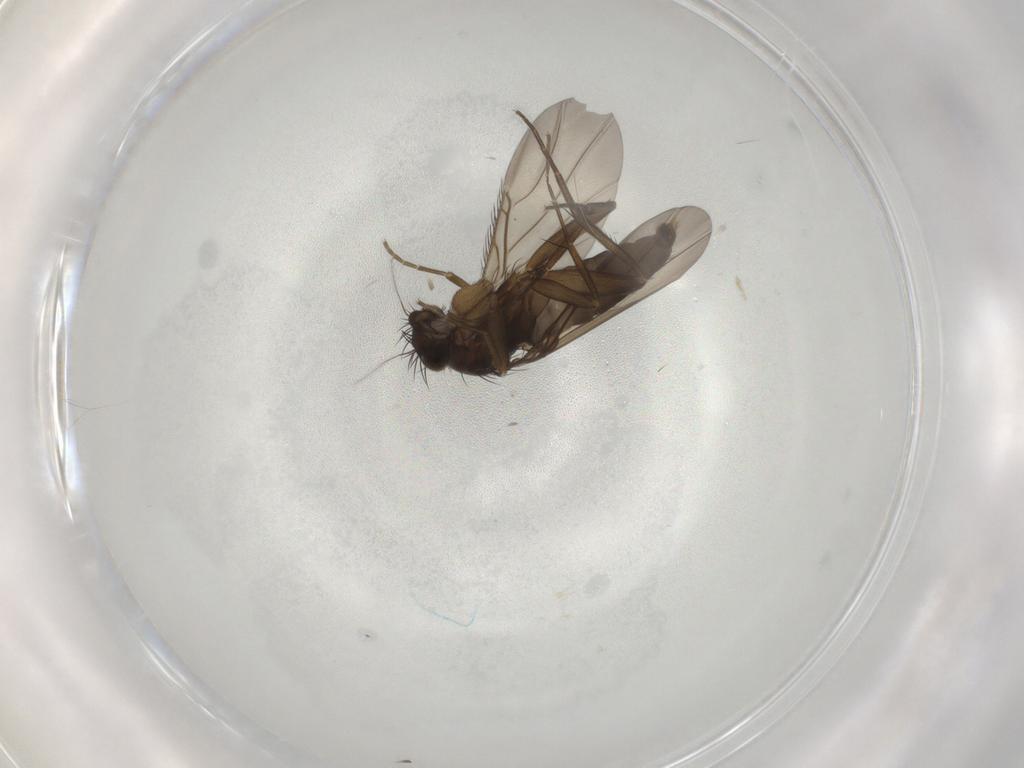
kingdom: Animalia
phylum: Arthropoda
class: Insecta
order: Diptera
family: Phoridae
